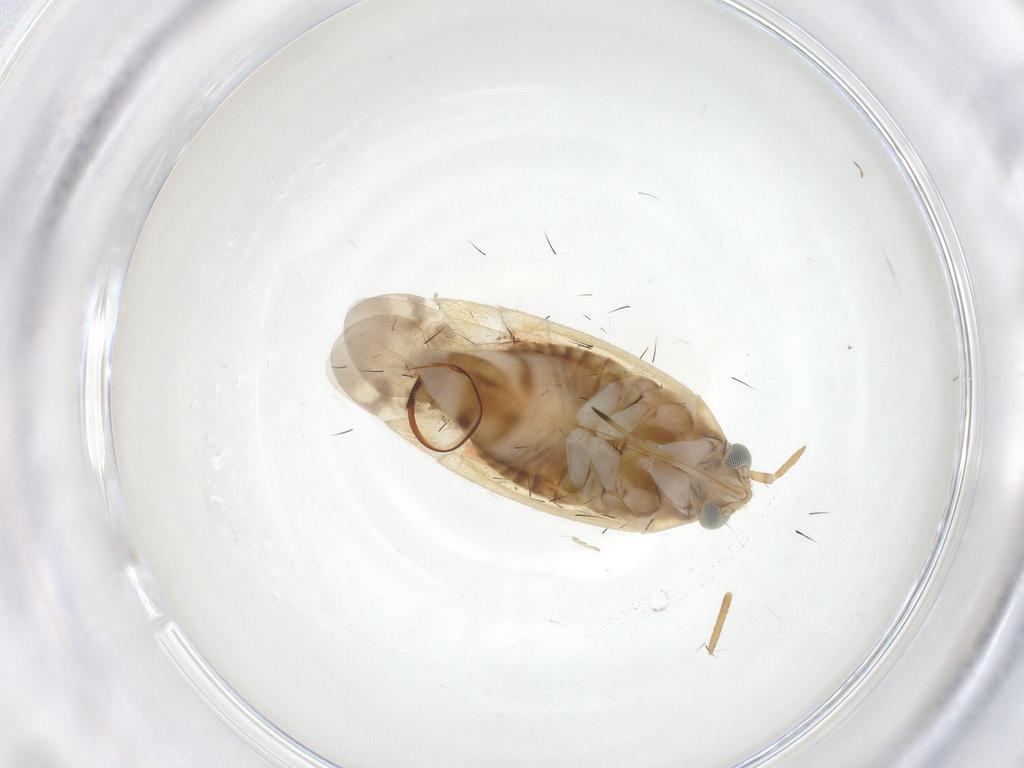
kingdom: Animalia
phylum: Arthropoda
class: Insecta
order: Hemiptera
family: Miridae
